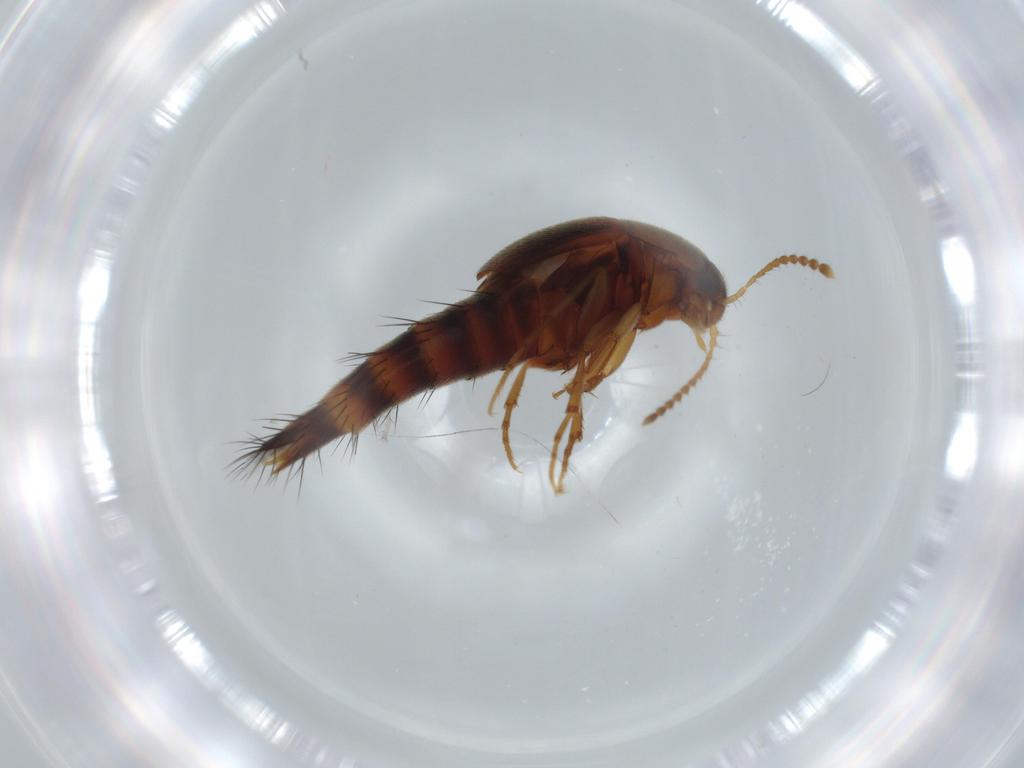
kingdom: Animalia
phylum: Arthropoda
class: Insecta
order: Coleoptera
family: Staphylinidae
